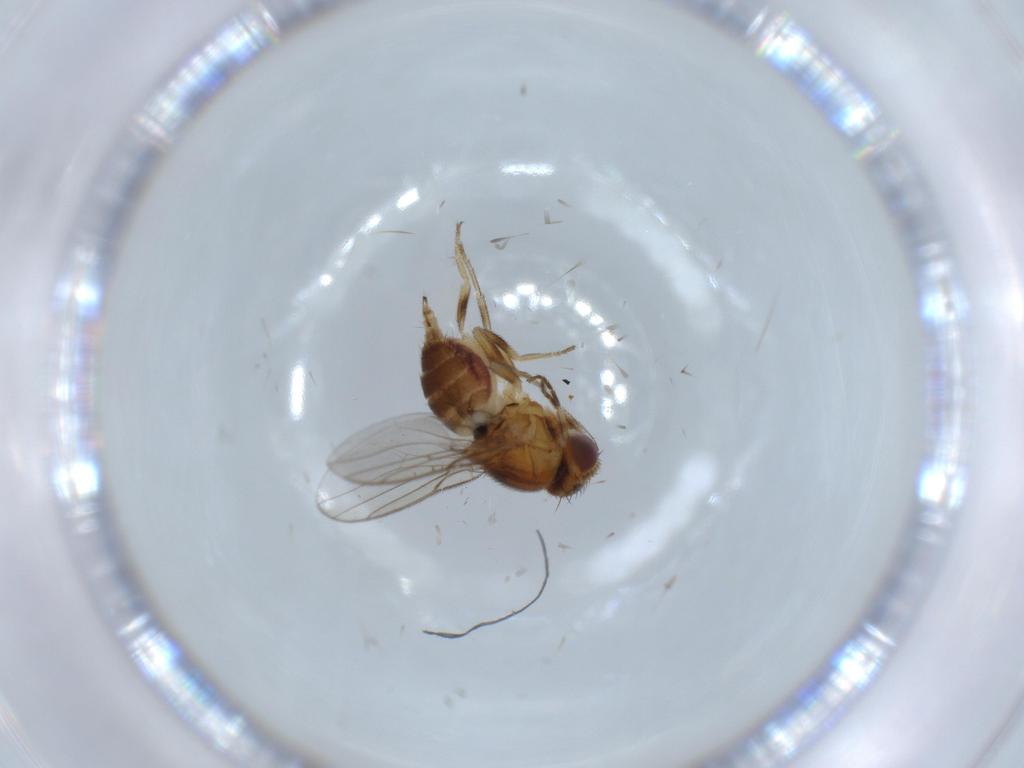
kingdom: Animalia
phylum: Arthropoda
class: Insecta
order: Diptera
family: Chloropidae
